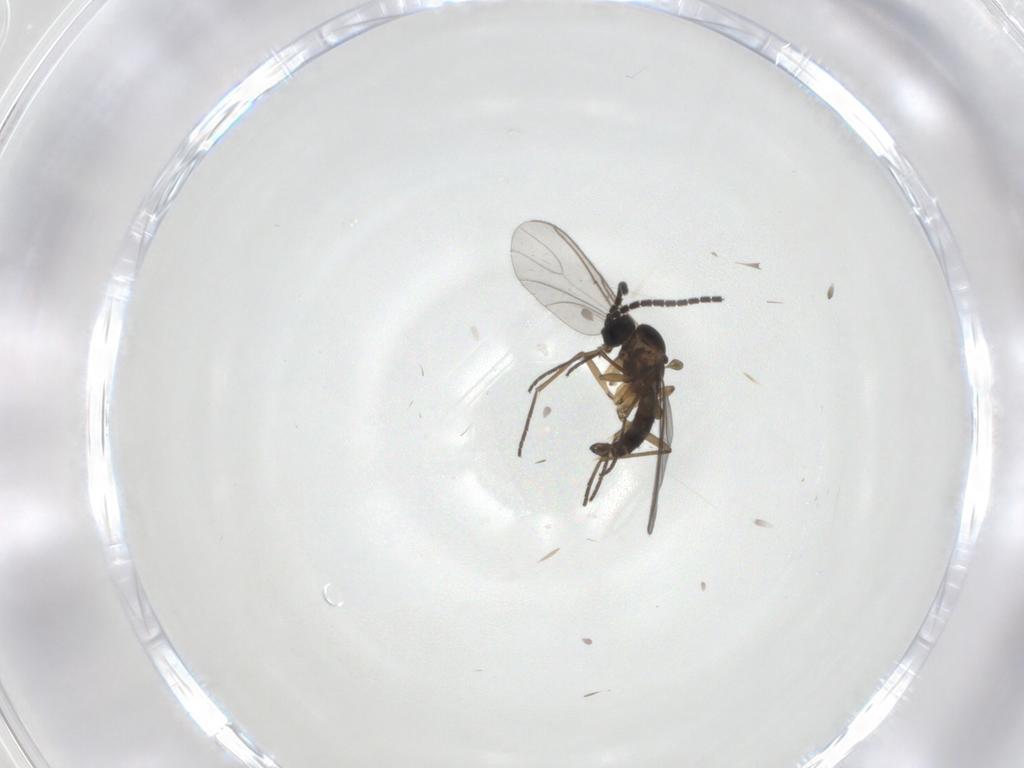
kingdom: Animalia
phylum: Arthropoda
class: Insecta
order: Diptera
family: Sciaridae
